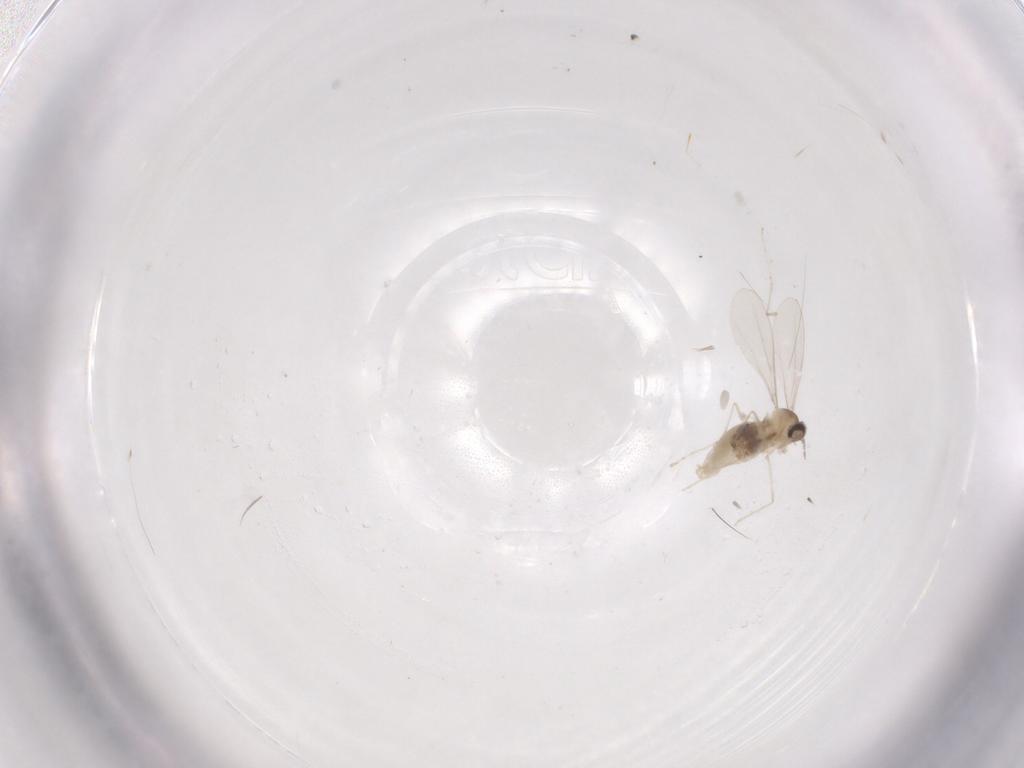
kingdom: Animalia
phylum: Arthropoda
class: Insecta
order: Diptera
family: Cecidomyiidae
